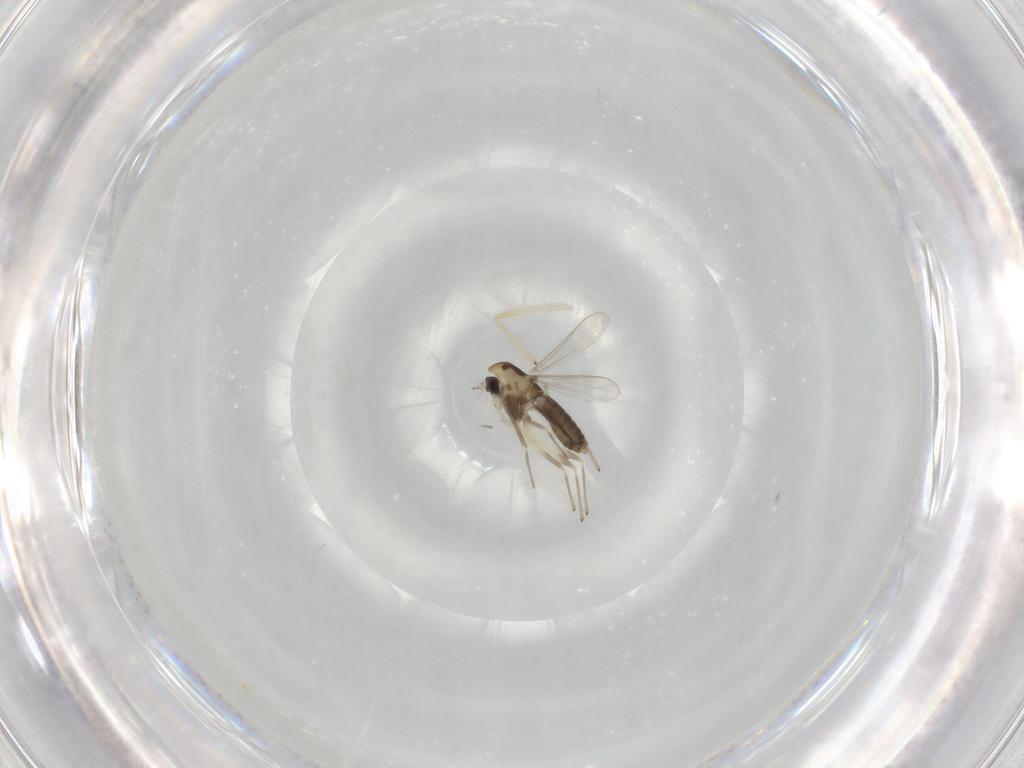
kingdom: Animalia
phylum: Arthropoda
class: Insecta
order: Diptera
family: Chironomidae
